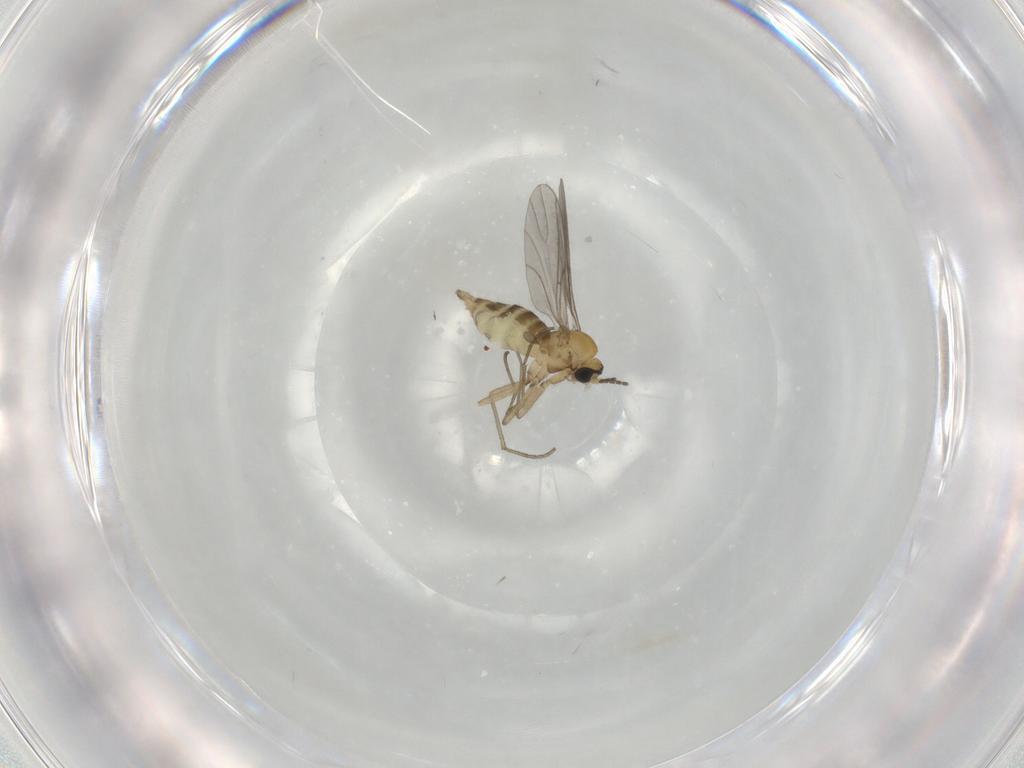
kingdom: Animalia
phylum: Arthropoda
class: Insecta
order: Diptera
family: Sciaridae
